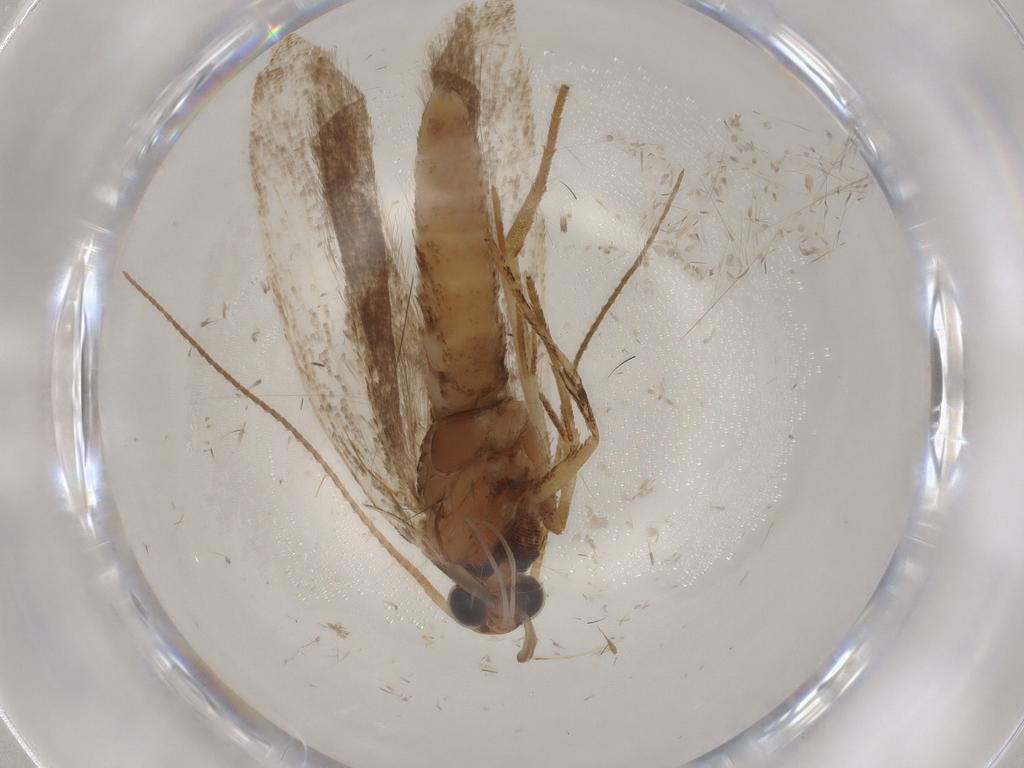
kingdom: Animalia
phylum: Arthropoda
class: Insecta
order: Lepidoptera
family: Gelechiidae
